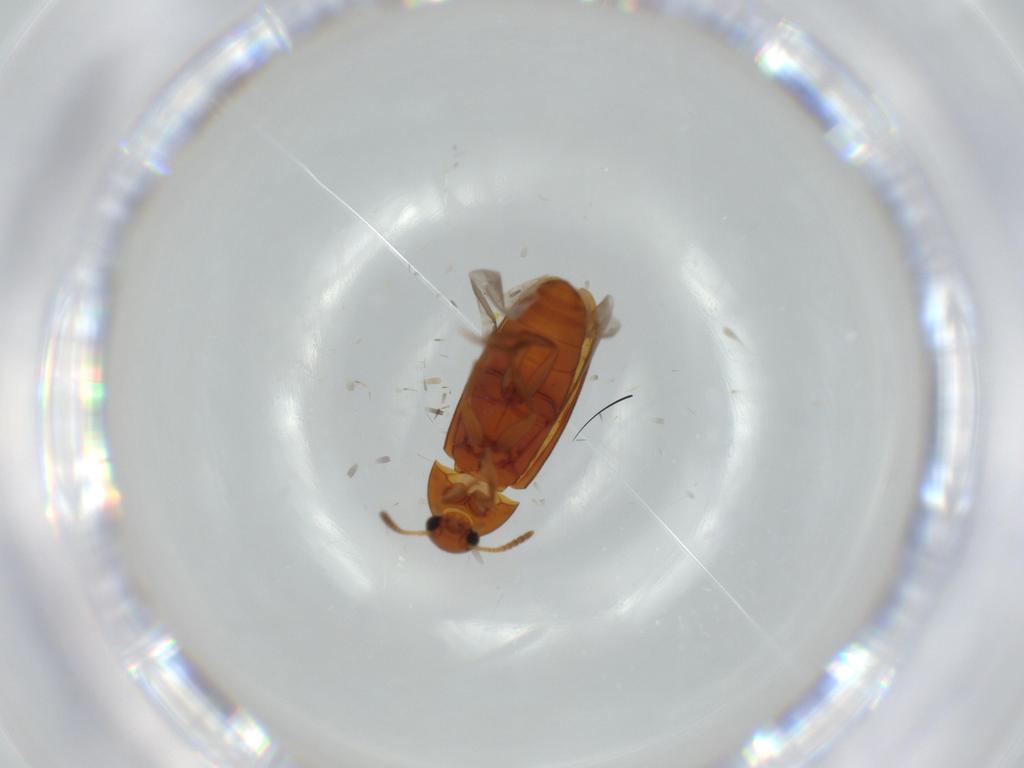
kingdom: Animalia
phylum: Arthropoda
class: Insecta
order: Coleoptera
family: Scraptiidae
